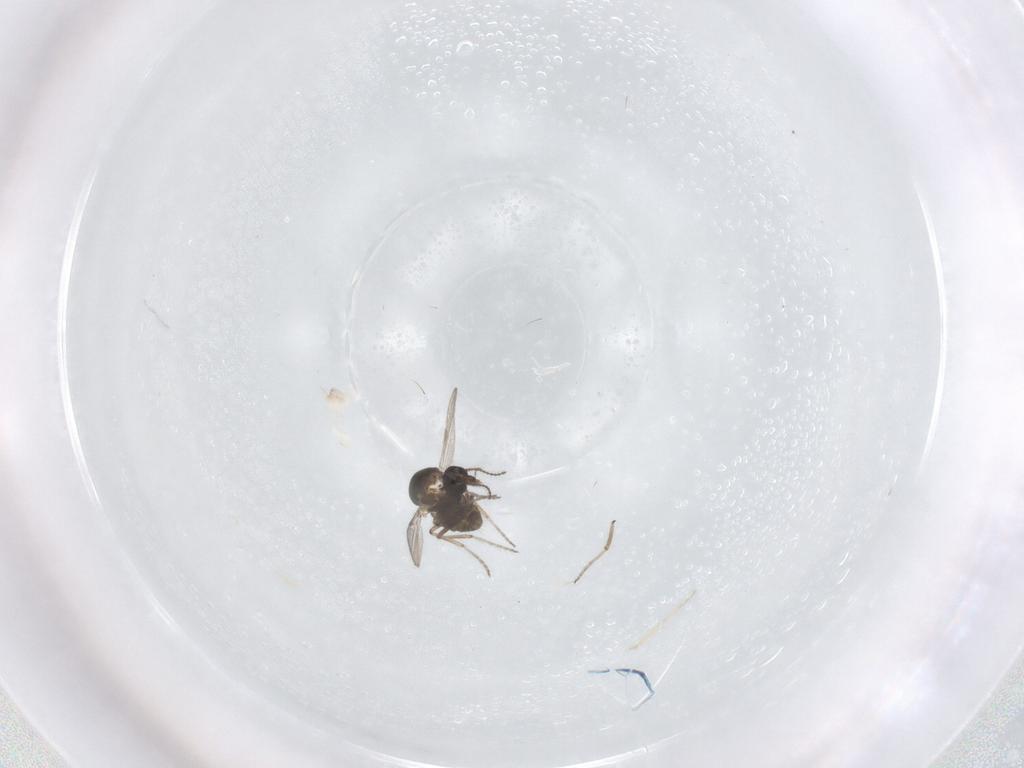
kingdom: Animalia
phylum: Arthropoda
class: Insecta
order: Diptera
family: Ceratopogonidae
